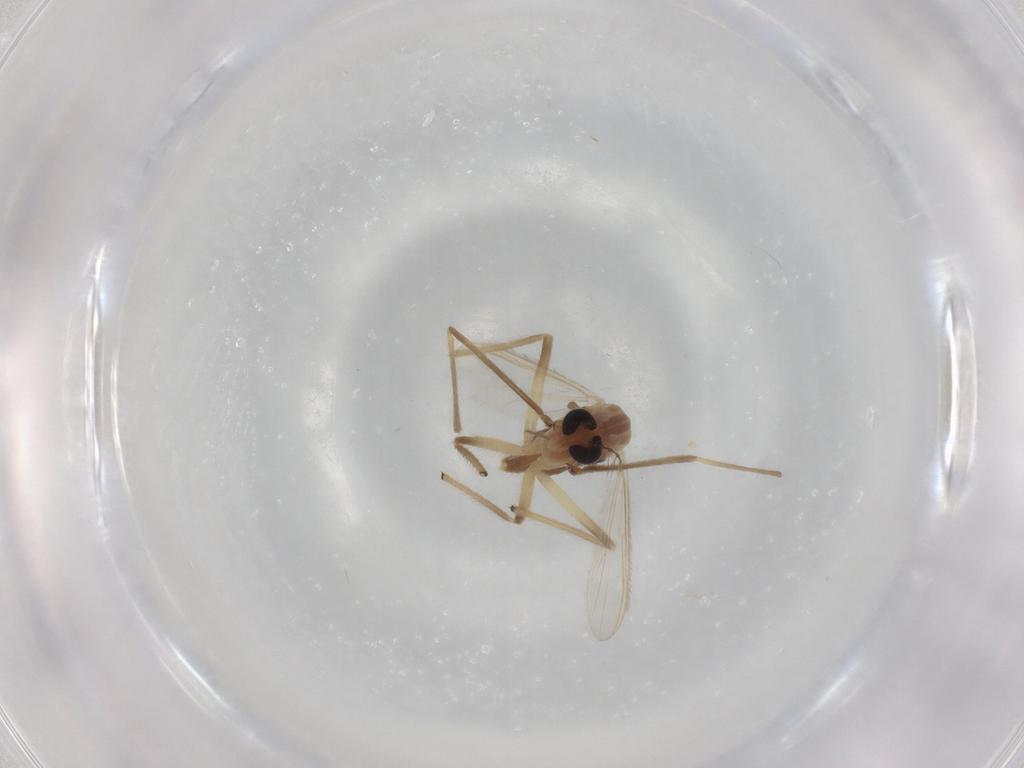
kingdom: Animalia
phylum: Arthropoda
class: Insecta
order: Diptera
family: Chironomidae
